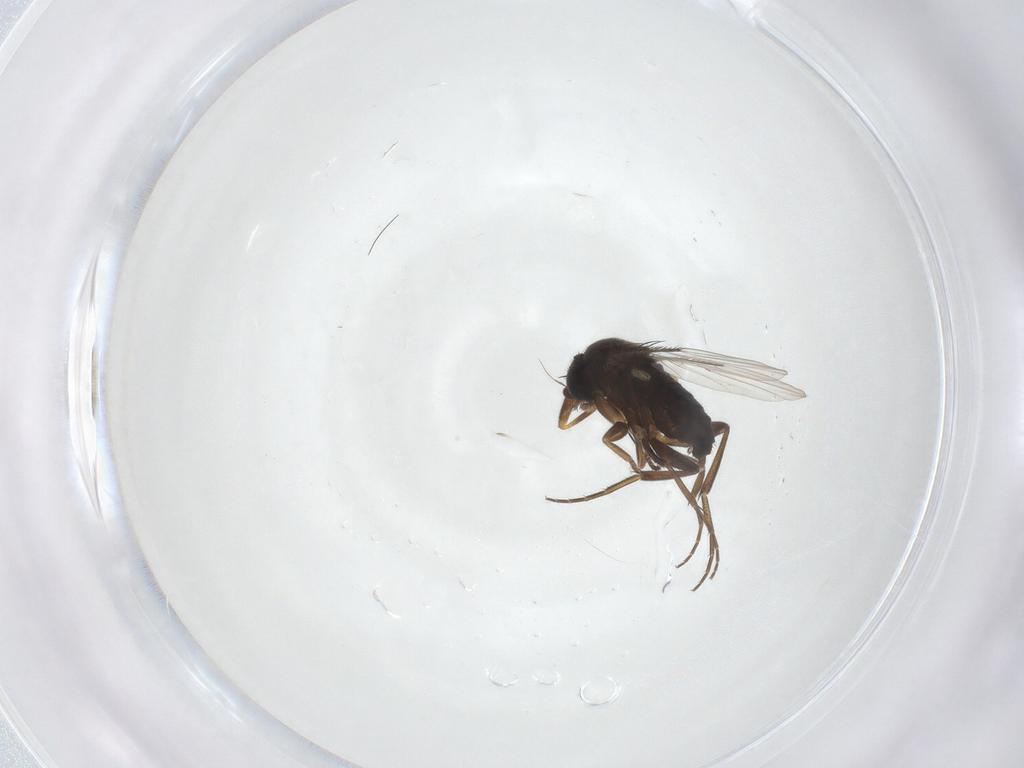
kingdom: Animalia
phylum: Arthropoda
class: Insecta
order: Diptera
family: Phoridae
